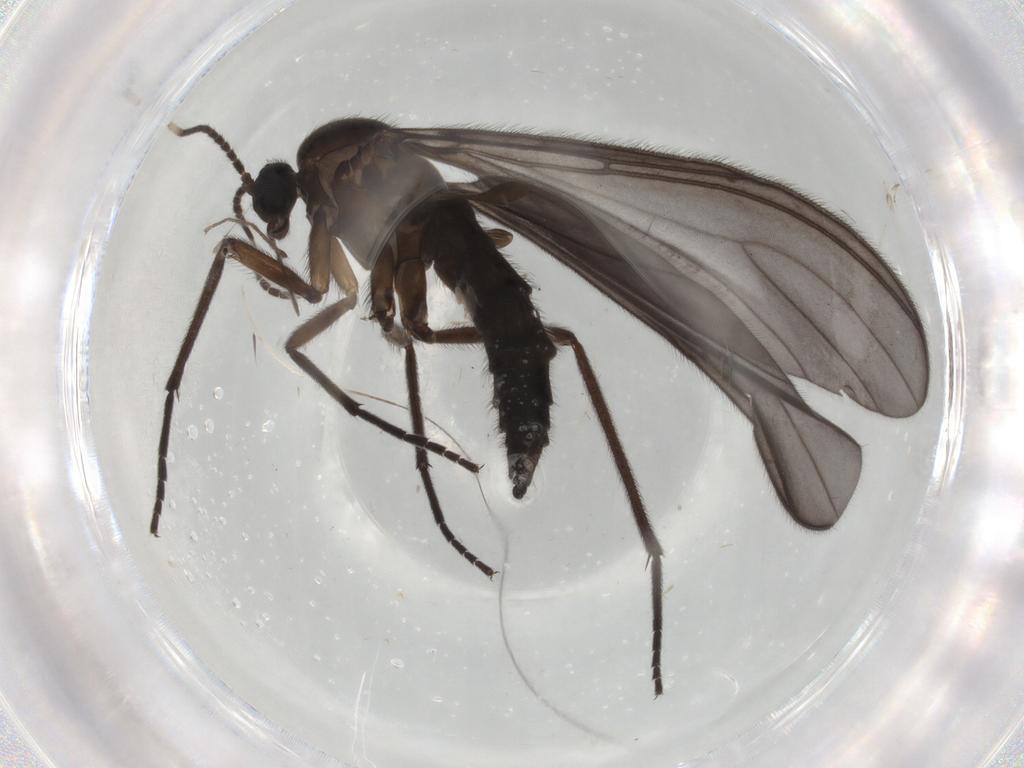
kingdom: Animalia
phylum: Arthropoda
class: Insecta
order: Diptera
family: Sciaridae
